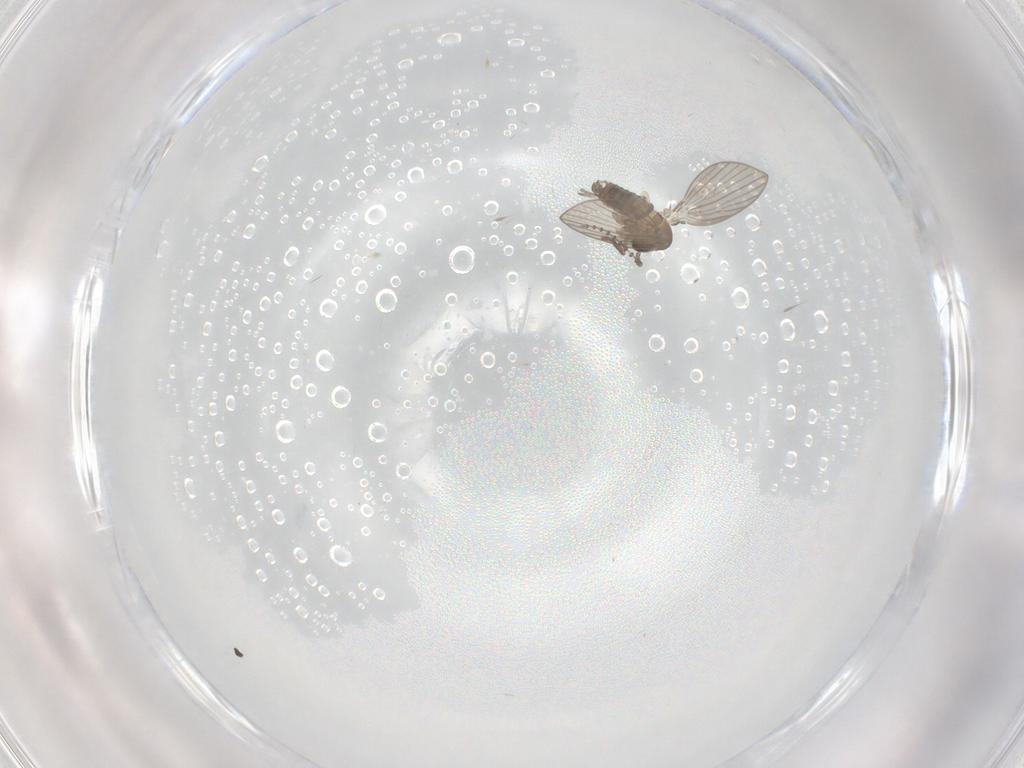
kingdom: Animalia
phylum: Arthropoda
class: Insecta
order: Diptera
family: Psychodidae
